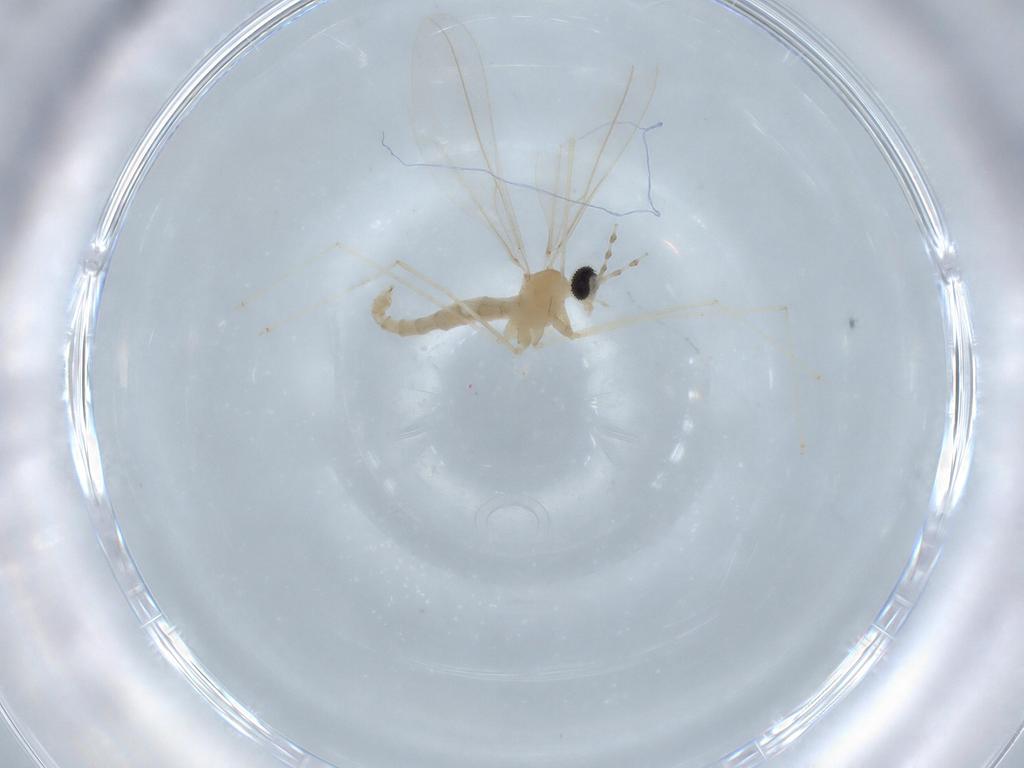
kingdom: Animalia
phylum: Arthropoda
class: Insecta
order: Diptera
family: Cecidomyiidae
